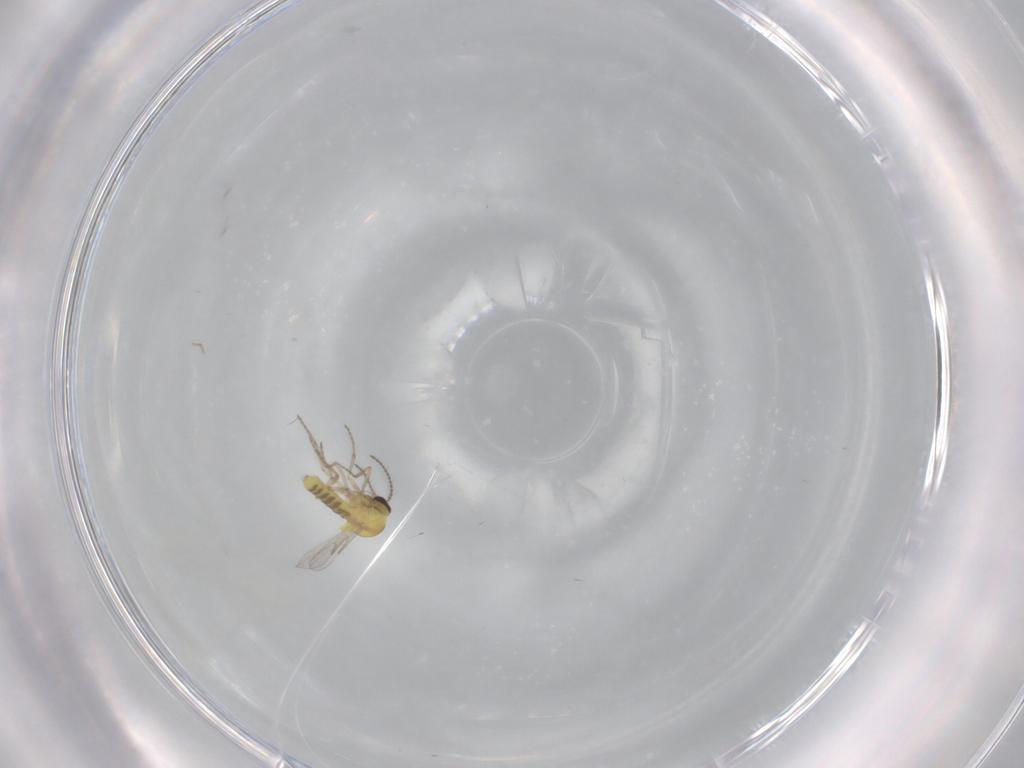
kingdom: Animalia
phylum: Arthropoda
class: Insecta
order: Diptera
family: Ceratopogonidae
